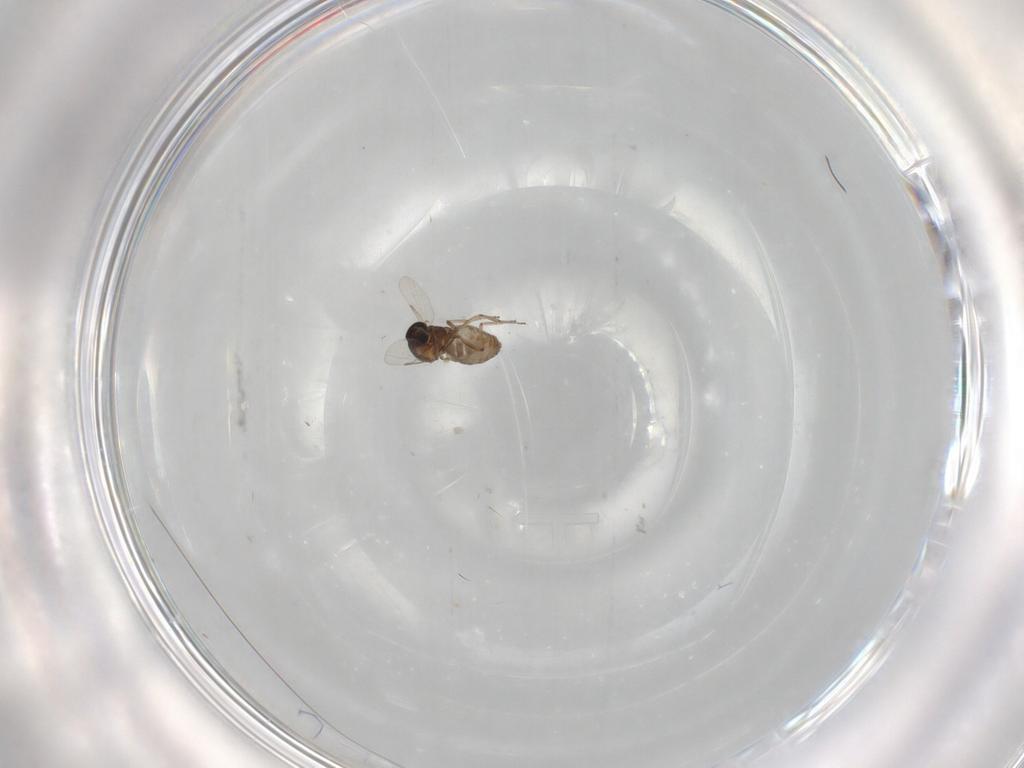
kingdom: Animalia
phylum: Arthropoda
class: Insecta
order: Diptera
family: Ceratopogonidae
